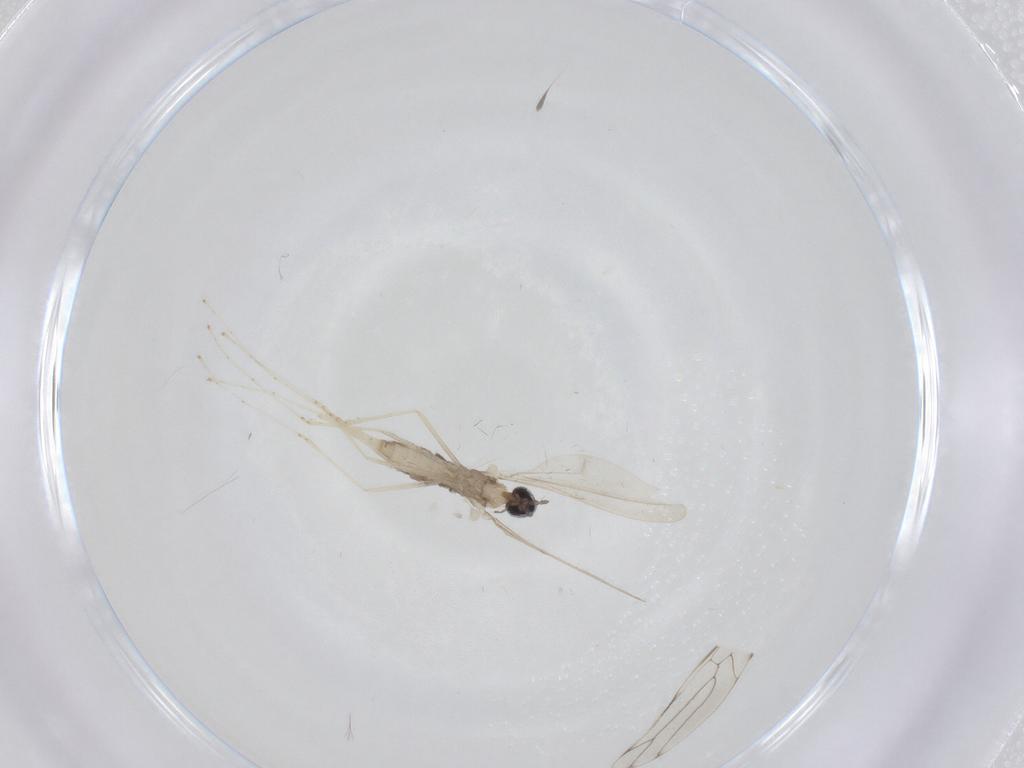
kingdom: Animalia
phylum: Arthropoda
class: Insecta
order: Diptera
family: Cecidomyiidae
